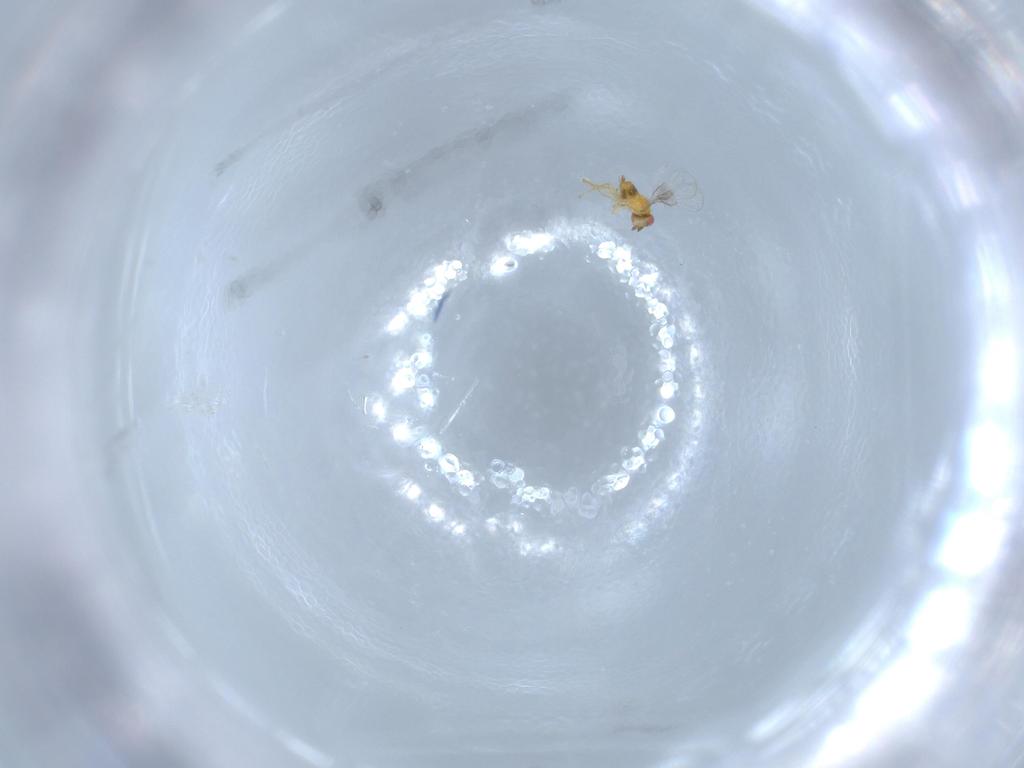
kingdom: Animalia
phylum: Arthropoda
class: Insecta
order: Hymenoptera
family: Trichogrammatidae
